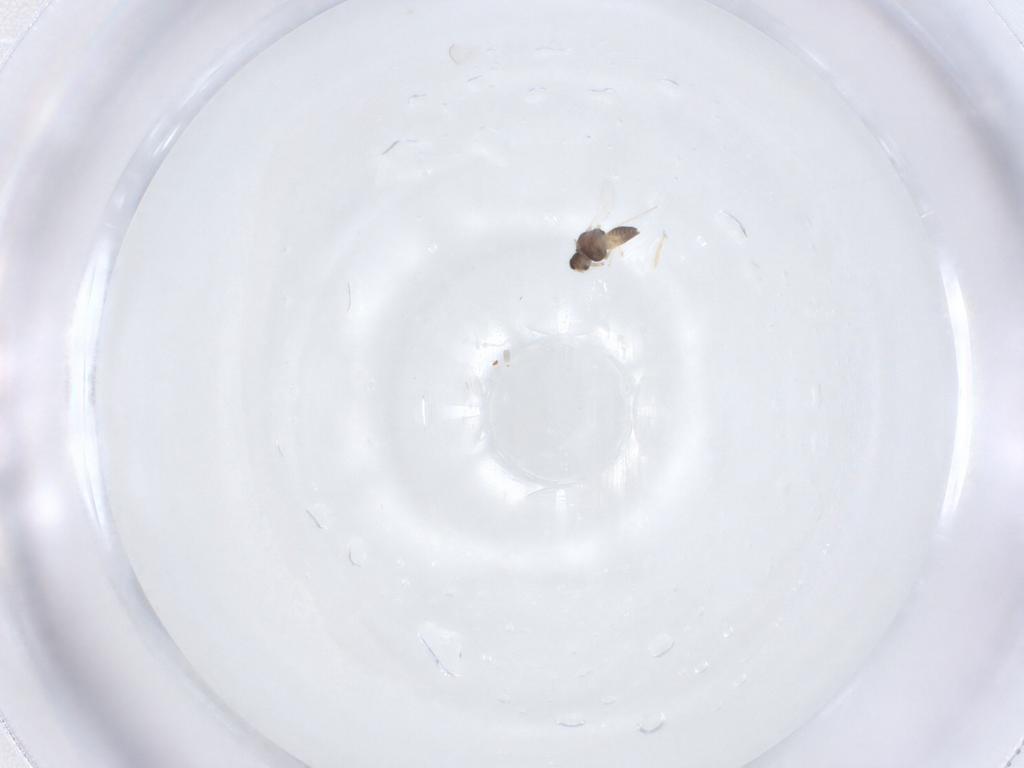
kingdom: Animalia
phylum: Arthropoda
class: Insecta
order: Diptera
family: Chironomidae
